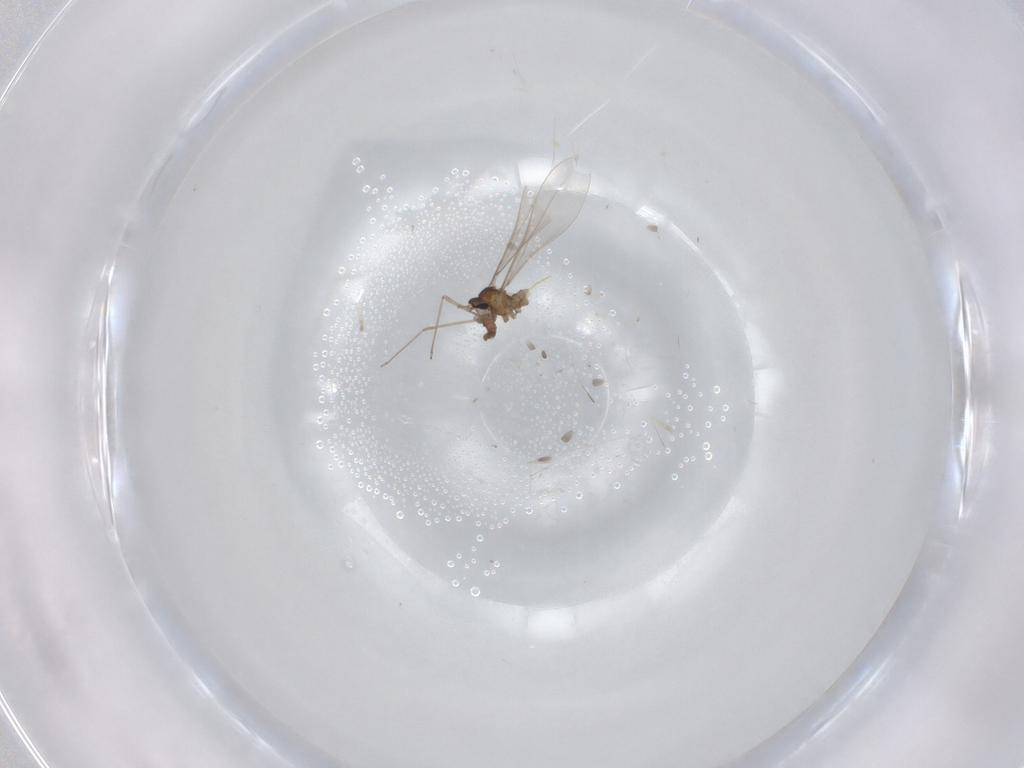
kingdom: Animalia
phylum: Arthropoda
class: Insecta
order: Diptera
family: Cecidomyiidae
